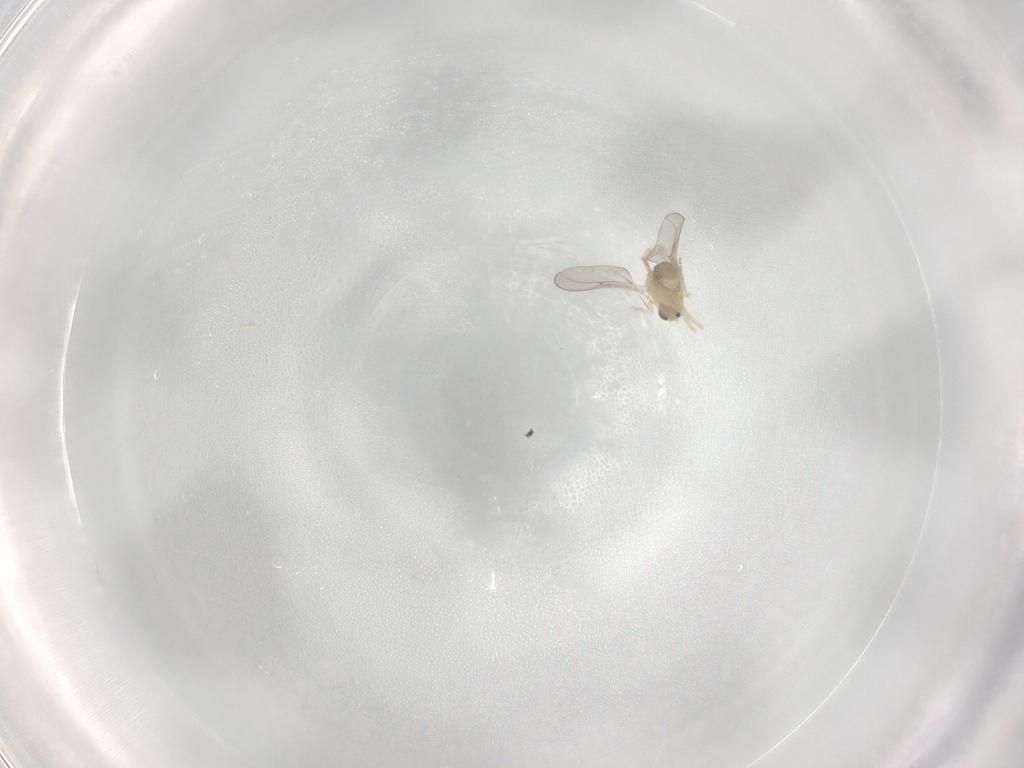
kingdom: Animalia
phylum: Arthropoda
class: Insecta
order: Diptera
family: Cecidomyiidae
